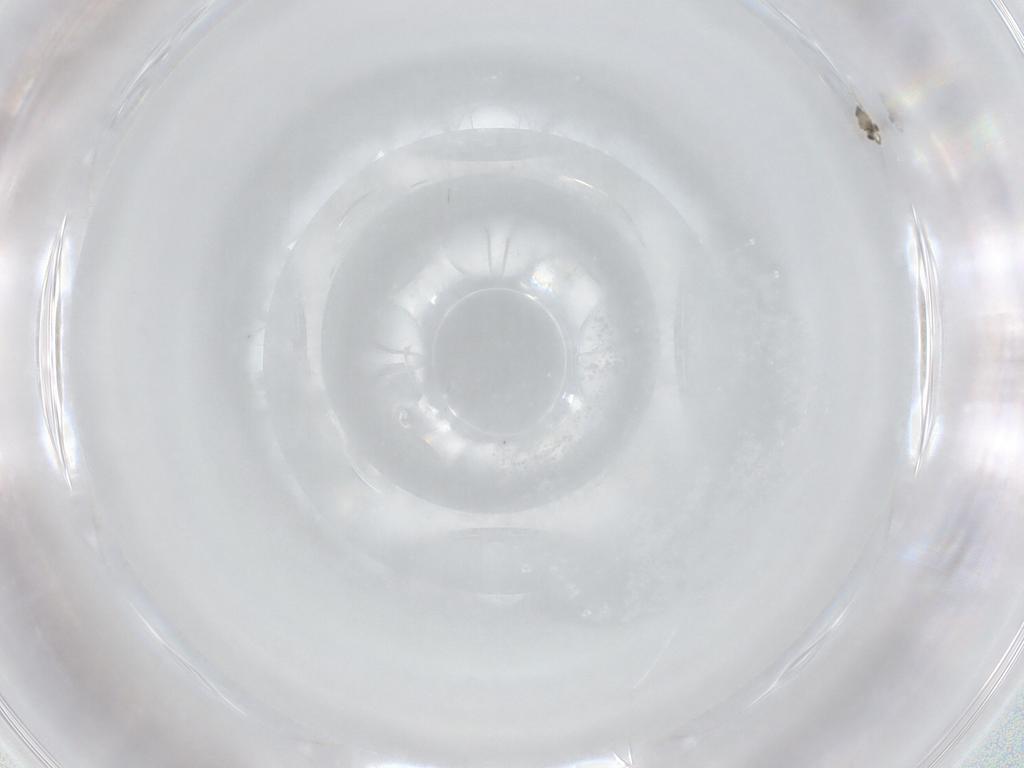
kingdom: Animalia
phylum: Arthropoda
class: Insecta
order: Hymenoptera
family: Aphelinidae
